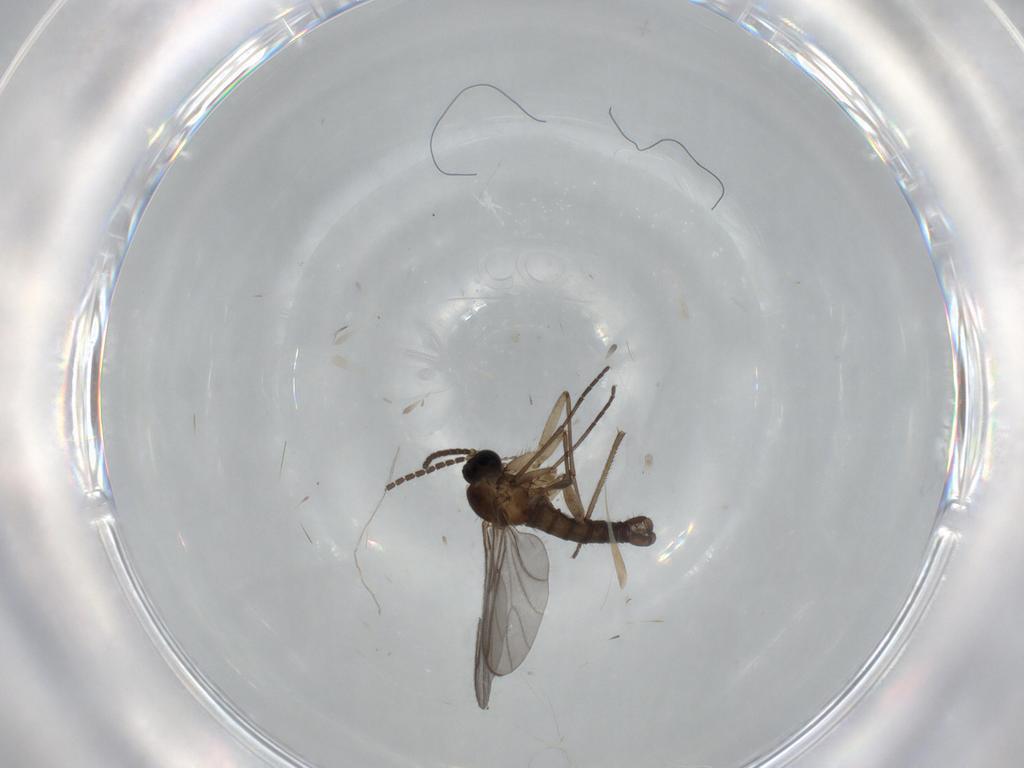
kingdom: Animalia
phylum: Arthropoda
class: Insecta
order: Diptera
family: Sciaridae
